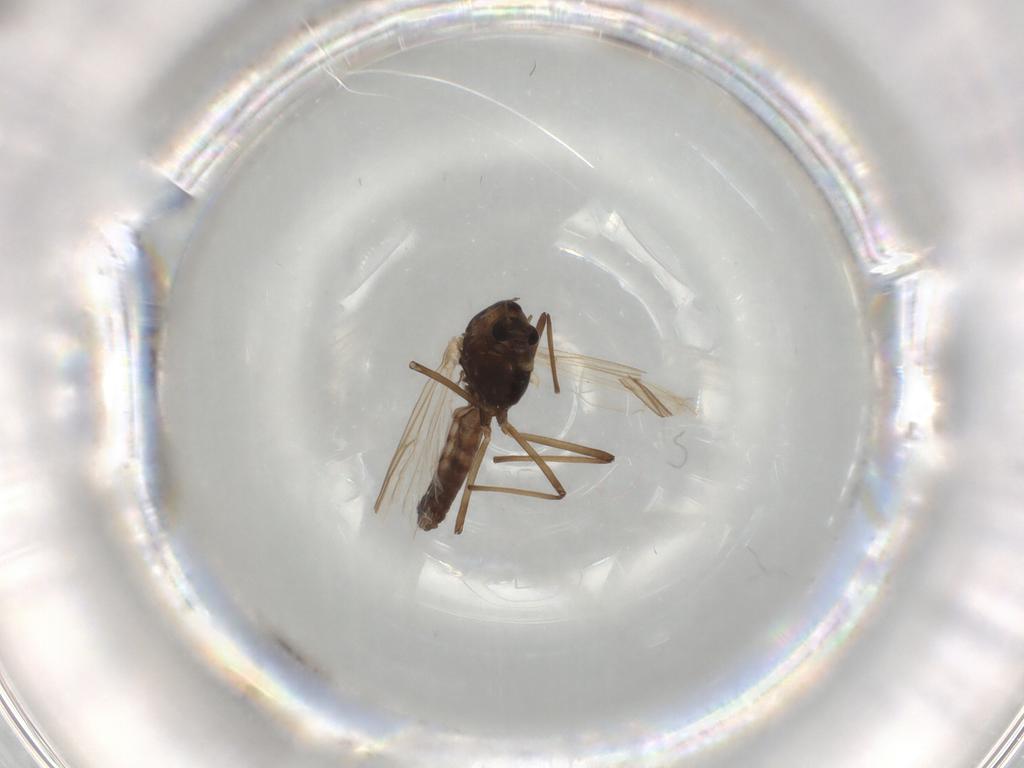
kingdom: Animalia
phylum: Arthropoda
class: Insecta
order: Diptera
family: Chironomidae
